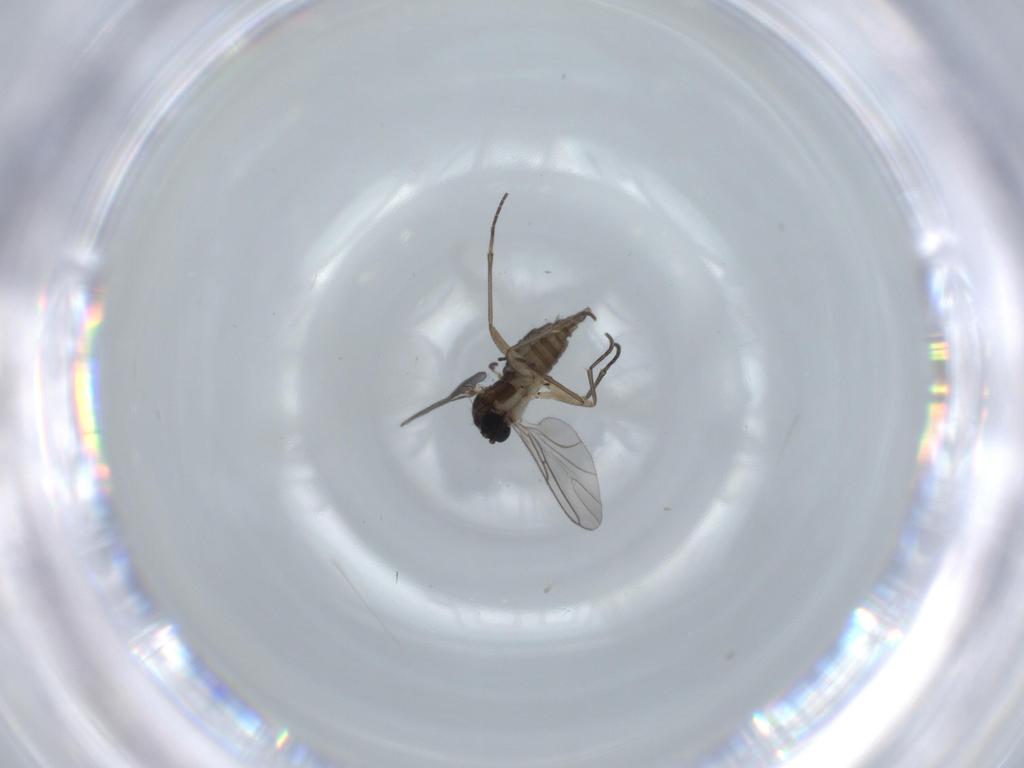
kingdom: Animalia
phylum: Arthropoda
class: Insecta
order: Diptera
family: Sciaridae
